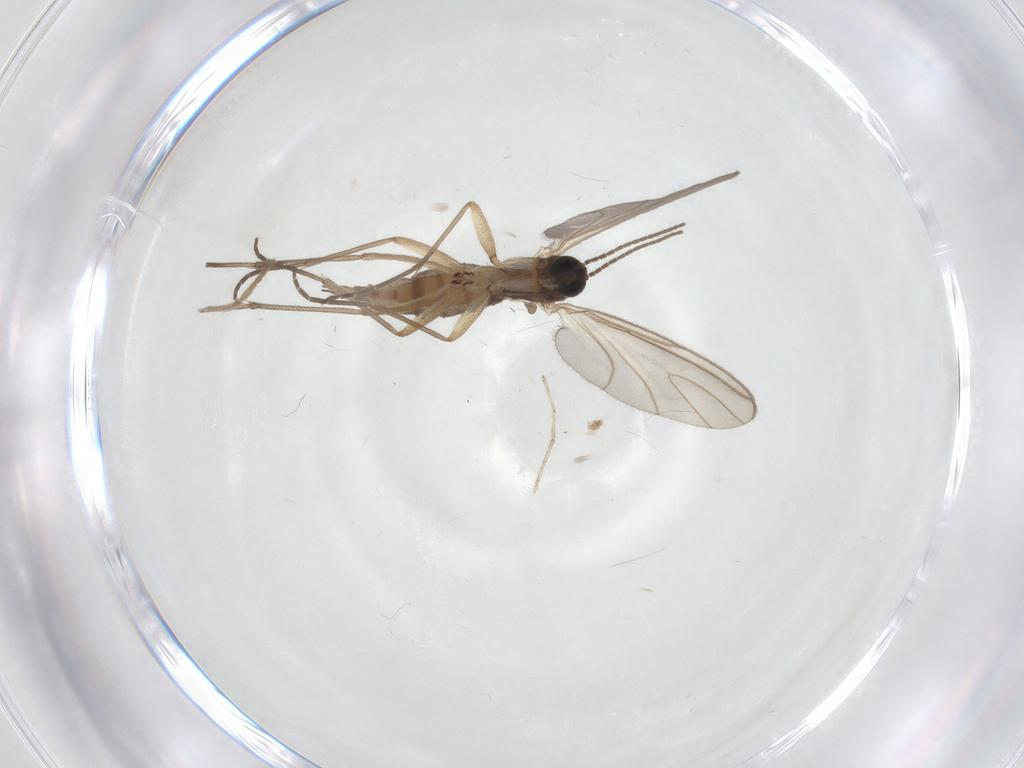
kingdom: Animalia
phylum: Arthropoda
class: Insecta
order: Diptera
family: Sciaridae
